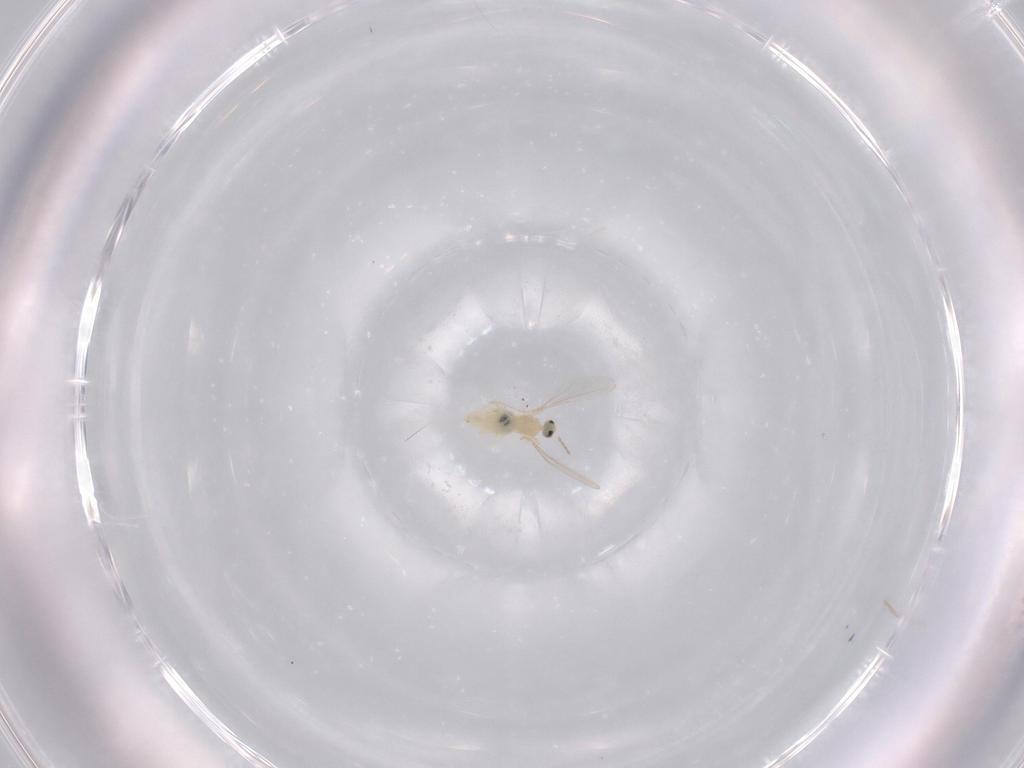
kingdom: Animalia
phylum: Arthropoda
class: Insecta
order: Diptera
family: Cecidomyiidae
